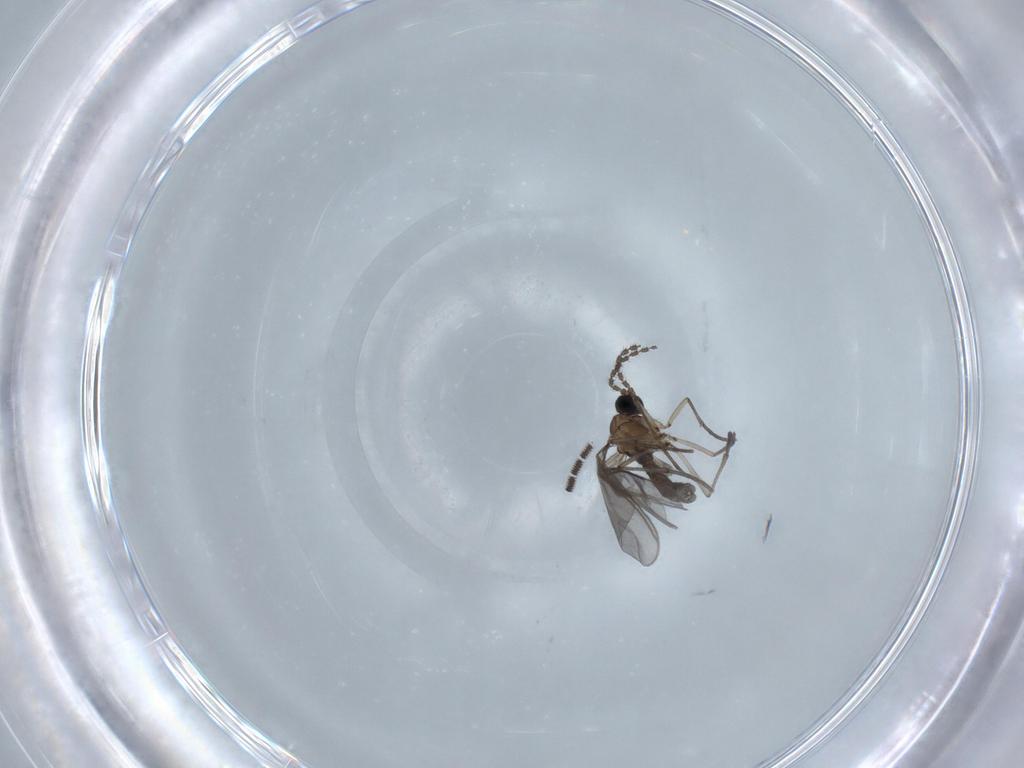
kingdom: Animalia
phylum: Arthropoda
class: Insecta
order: Diptera
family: Sciaridae
